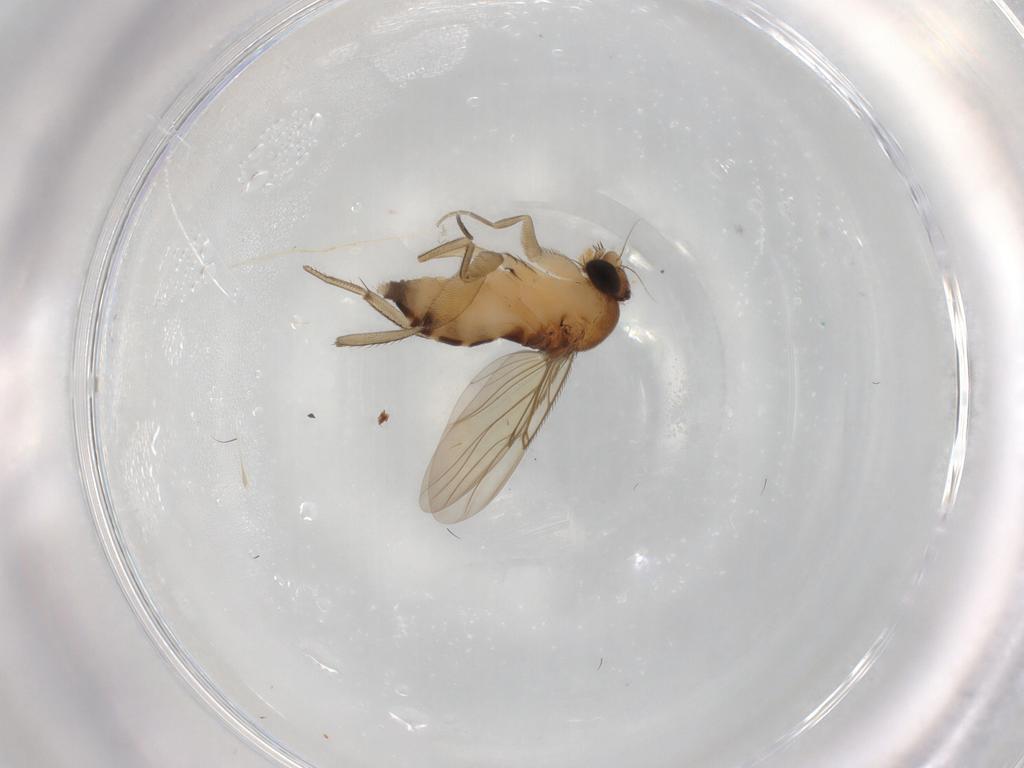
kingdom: Animalia
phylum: Arthropoda
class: Insecta
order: Diptera
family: Phoridae
